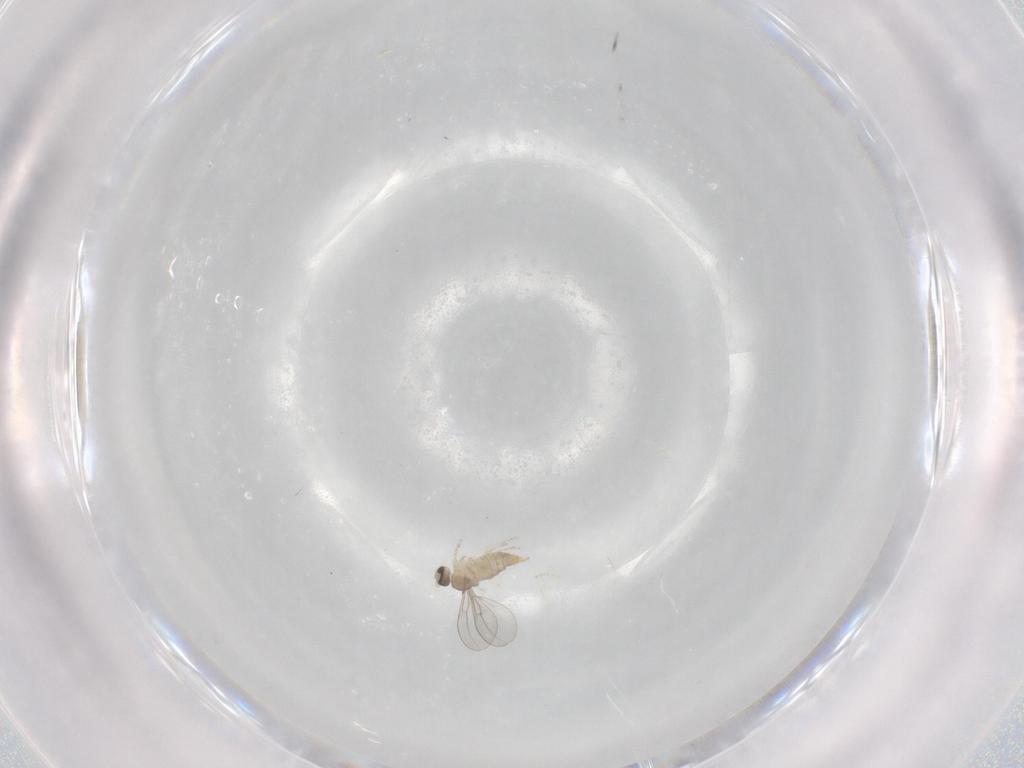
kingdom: Animalia
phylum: Arthropoda
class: Insecta
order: Diptera
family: Cecidomyiidae
